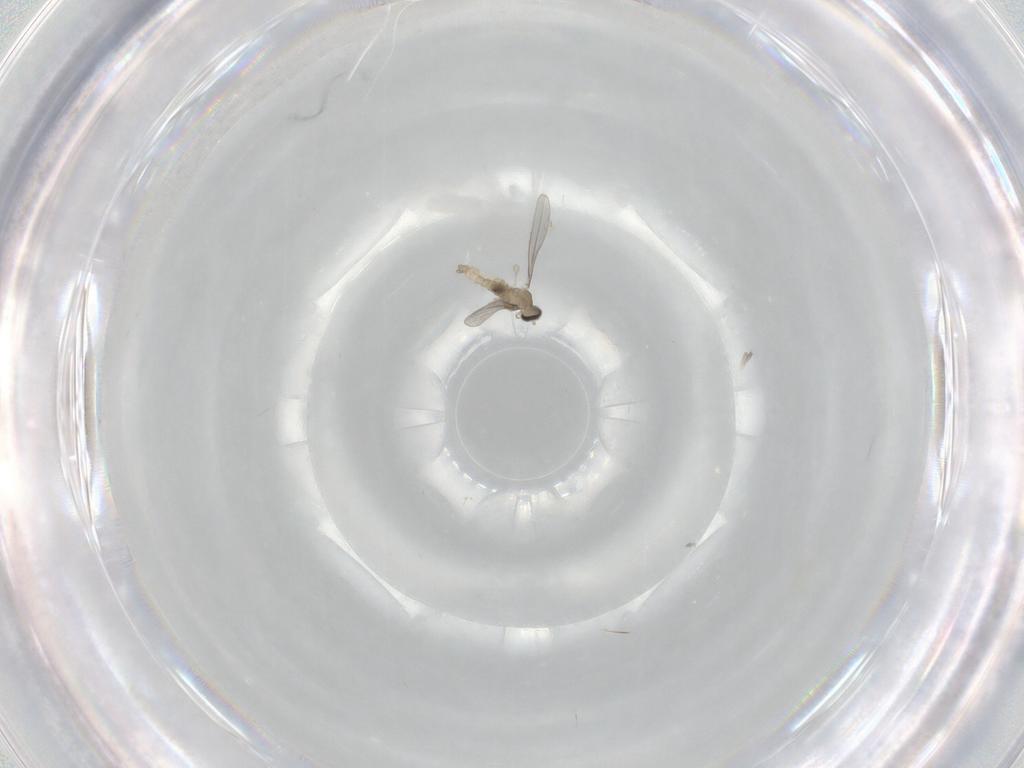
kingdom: Animalia
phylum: Arthropoda
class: Insecta
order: Diptera
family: Cecidomyiidae
